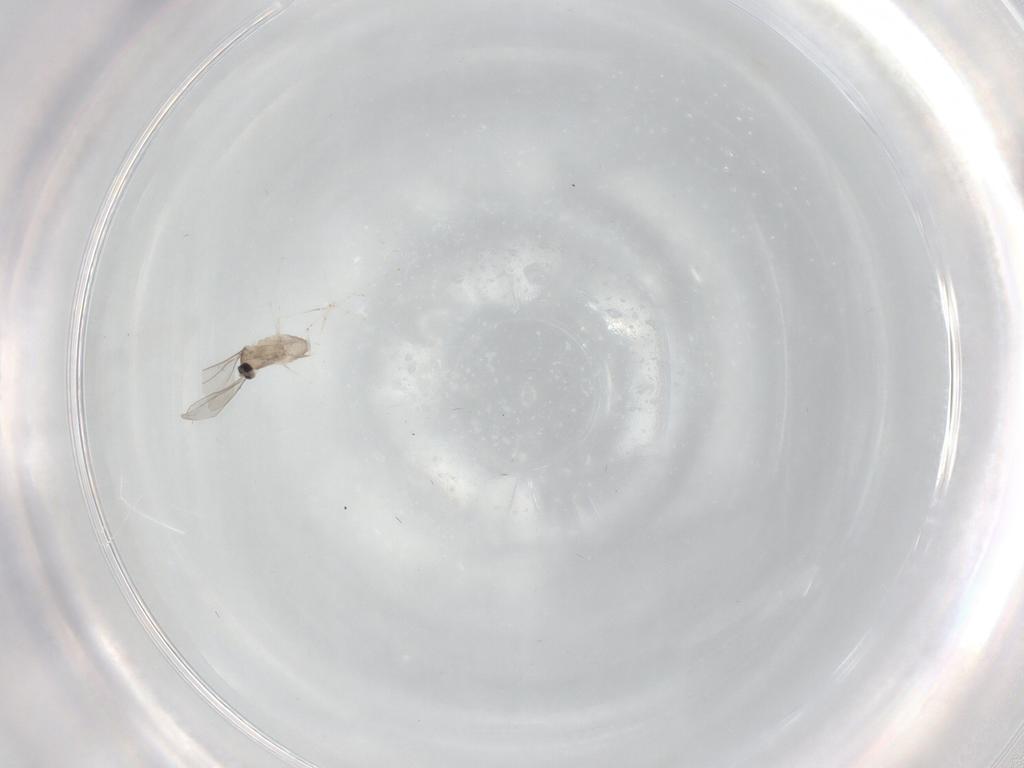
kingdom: Animalia
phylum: Arthropoda
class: Insecta
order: Diptera
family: Cecidomyiidae
